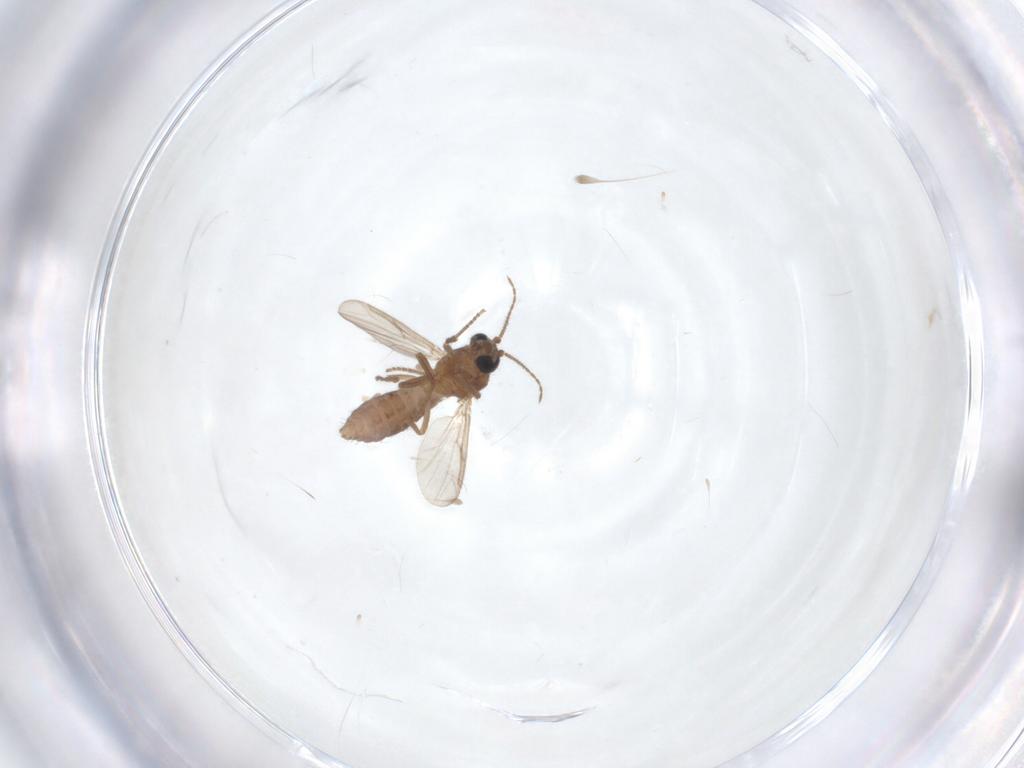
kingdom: Animalia
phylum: Arthropoda
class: Insecta
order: Diptera
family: Ceratopogonidae
